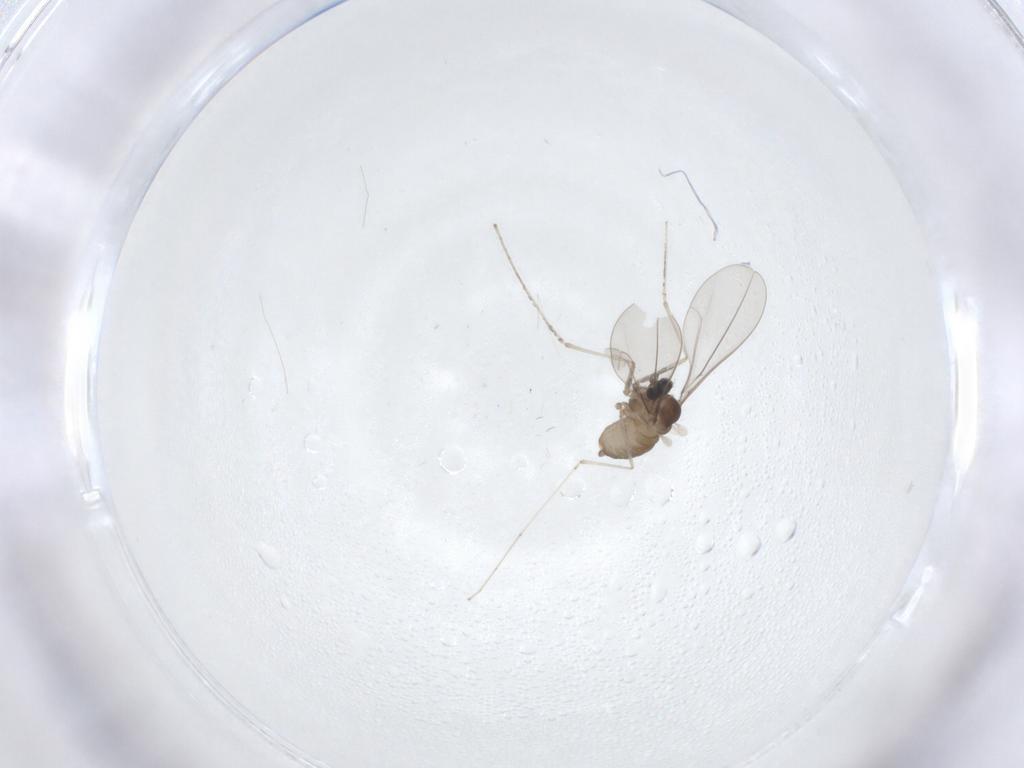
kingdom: Animalia
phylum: Arthropoda
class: Insecta
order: Diptera
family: Cecidomyiidae
